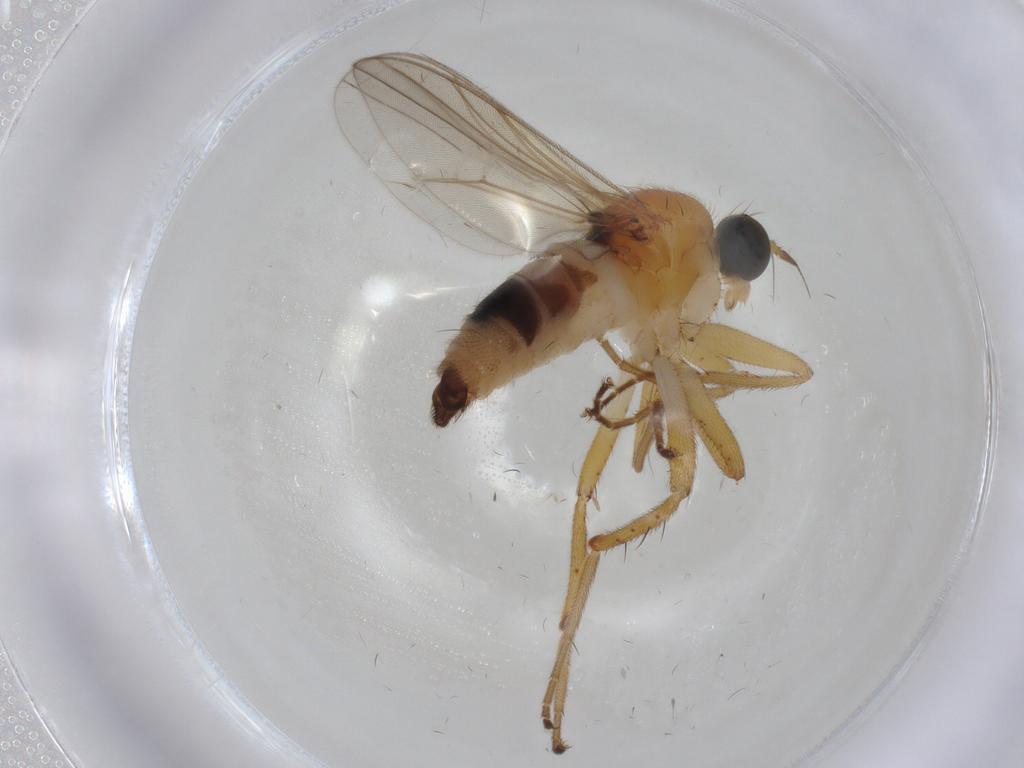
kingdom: Animalia
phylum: Arthropoda
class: Insecta
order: Diptera
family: Hybotidae
